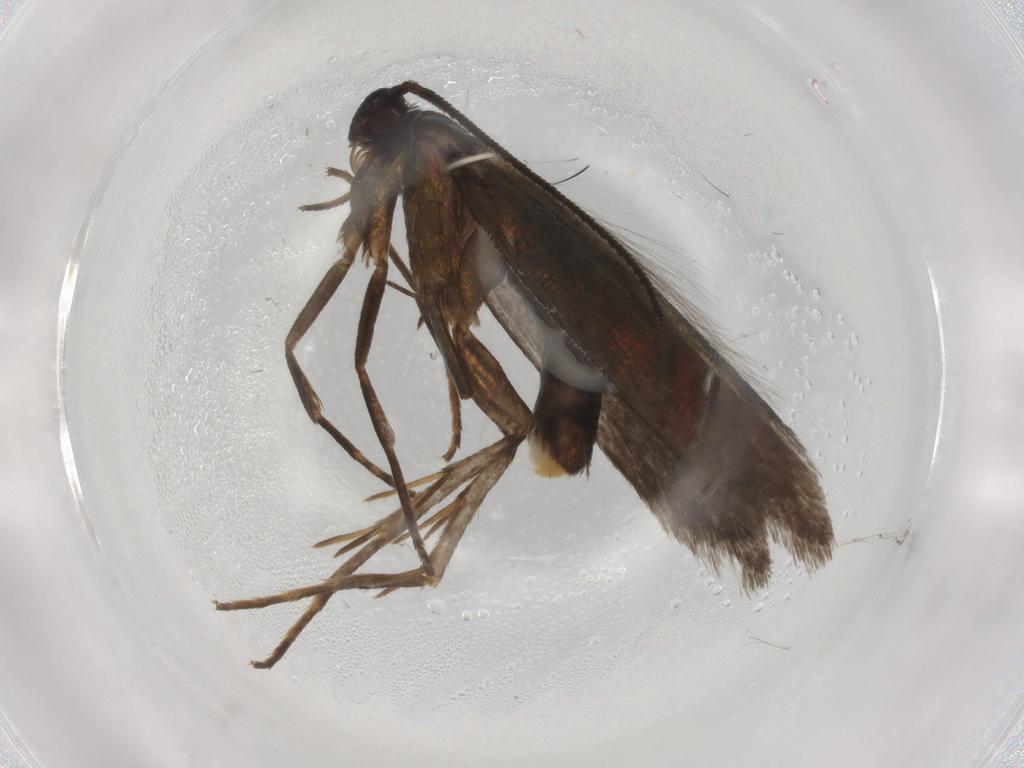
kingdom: Animalia
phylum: Arthropoda
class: Insecta
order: Lepidoptera
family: Argyresthiidae
